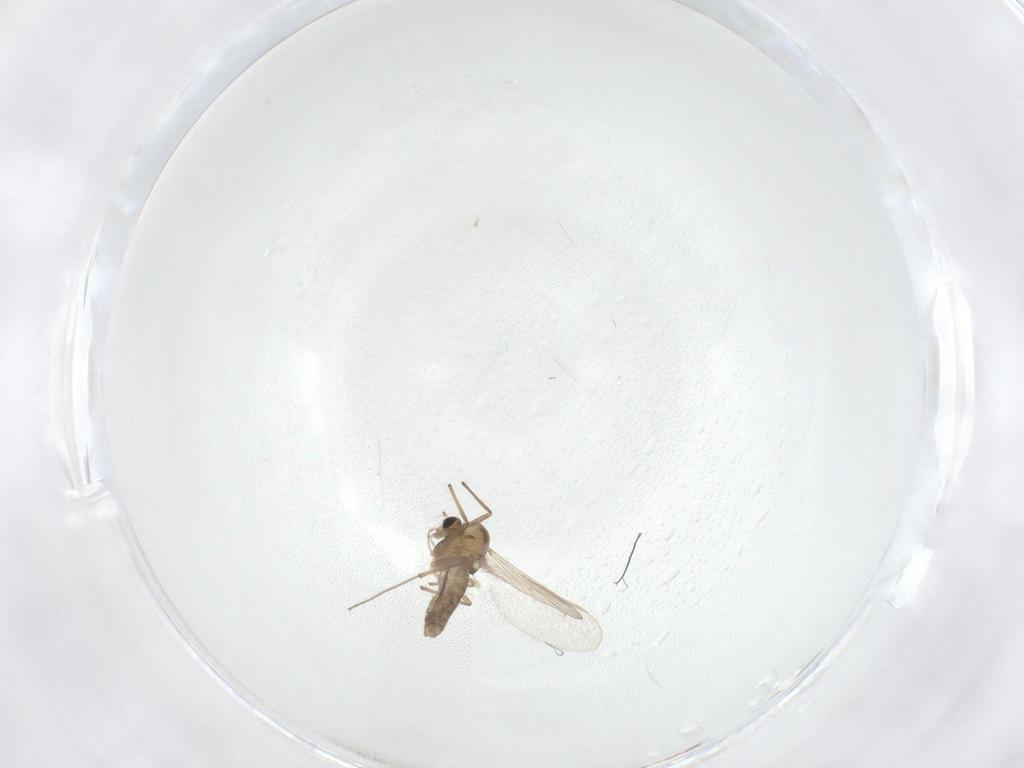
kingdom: Animalia
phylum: Arthropoda
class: Insecta
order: Diptera
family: Chironomidae
